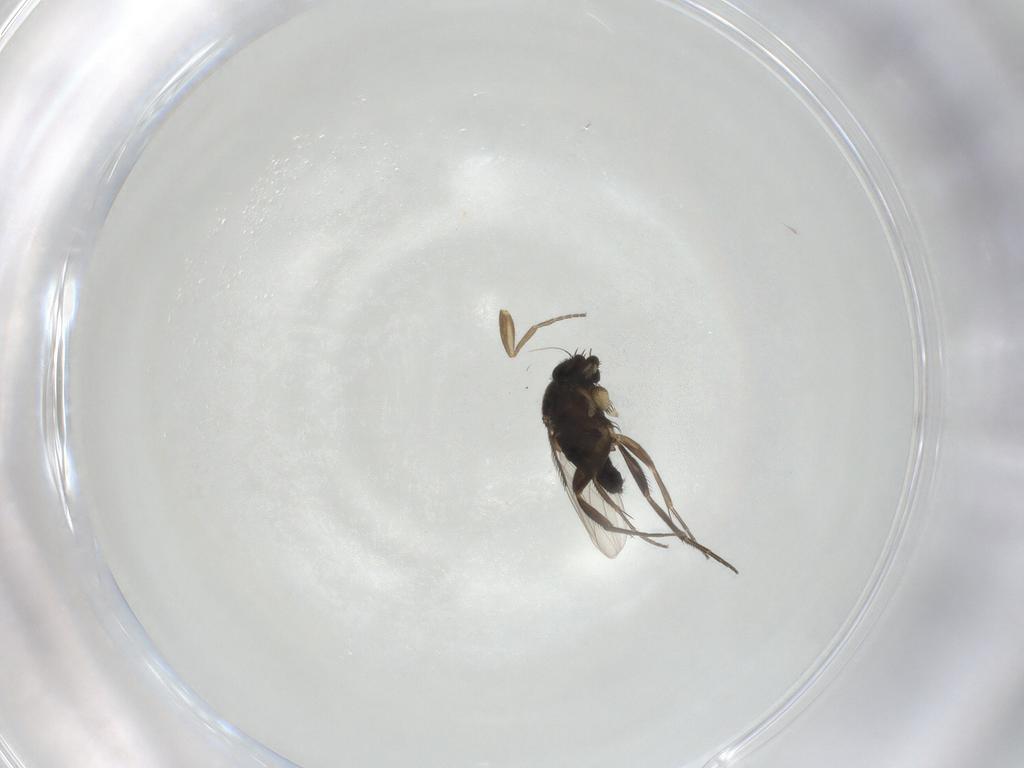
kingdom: Animalia
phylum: Arthropoda
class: Insecta
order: Diptera
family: Phoridae
